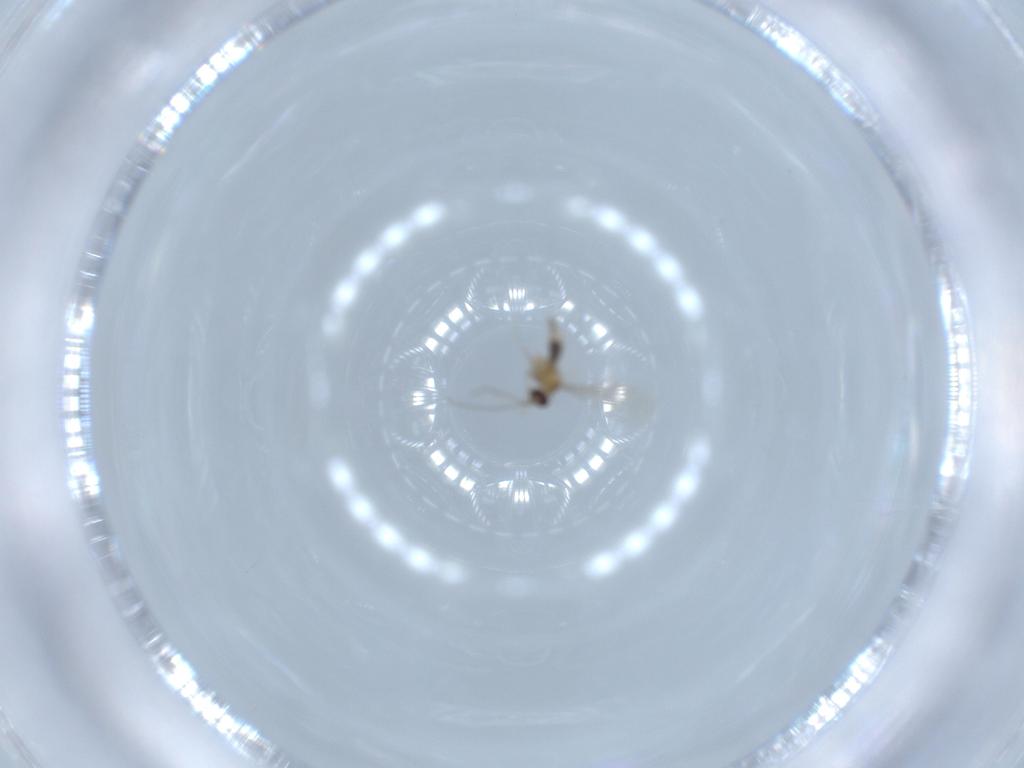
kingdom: Animalia
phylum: Arthropoda
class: Insecta
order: Diptera
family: Cecidomyiidae
